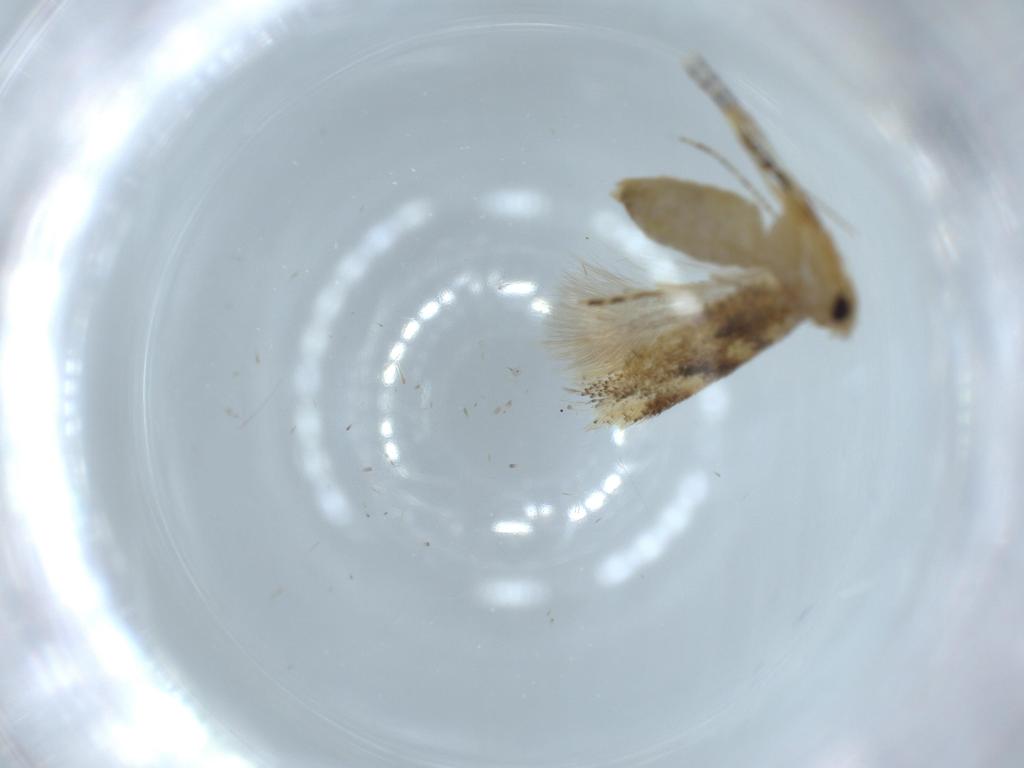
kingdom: Animalia
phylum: Arthropoda
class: Insecta
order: Lepidoptera
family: Bucculatricidae
